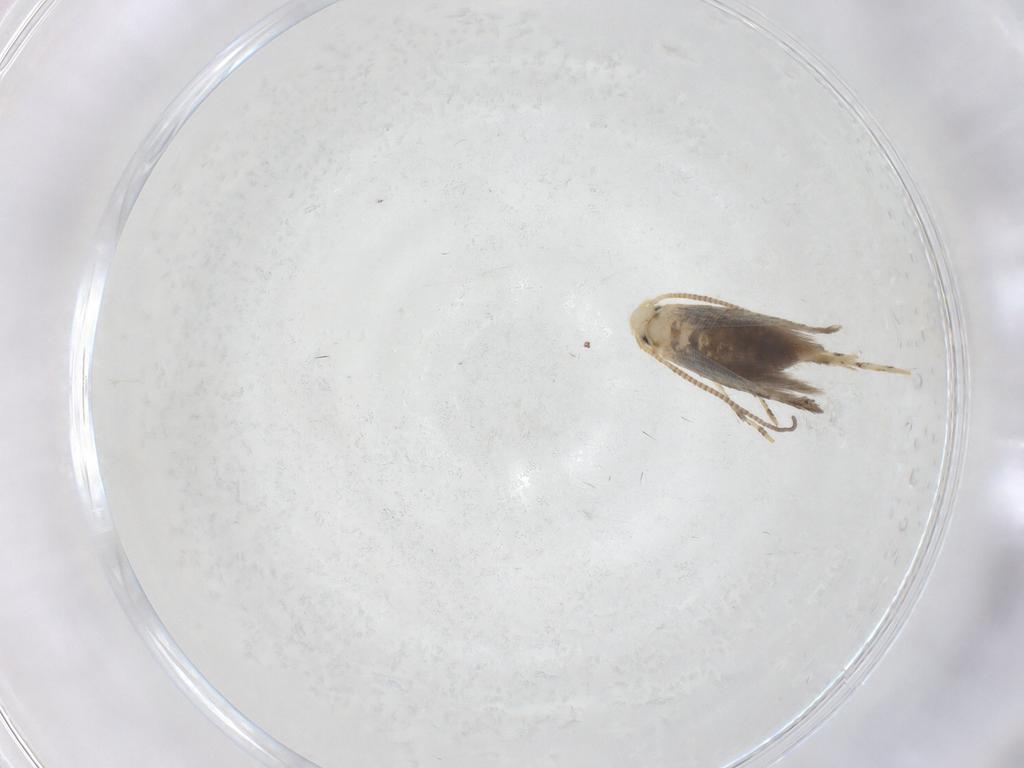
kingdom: Animalia
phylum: Arthropoda
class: Insecta
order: Lepidoptera
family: Gracillariidae
